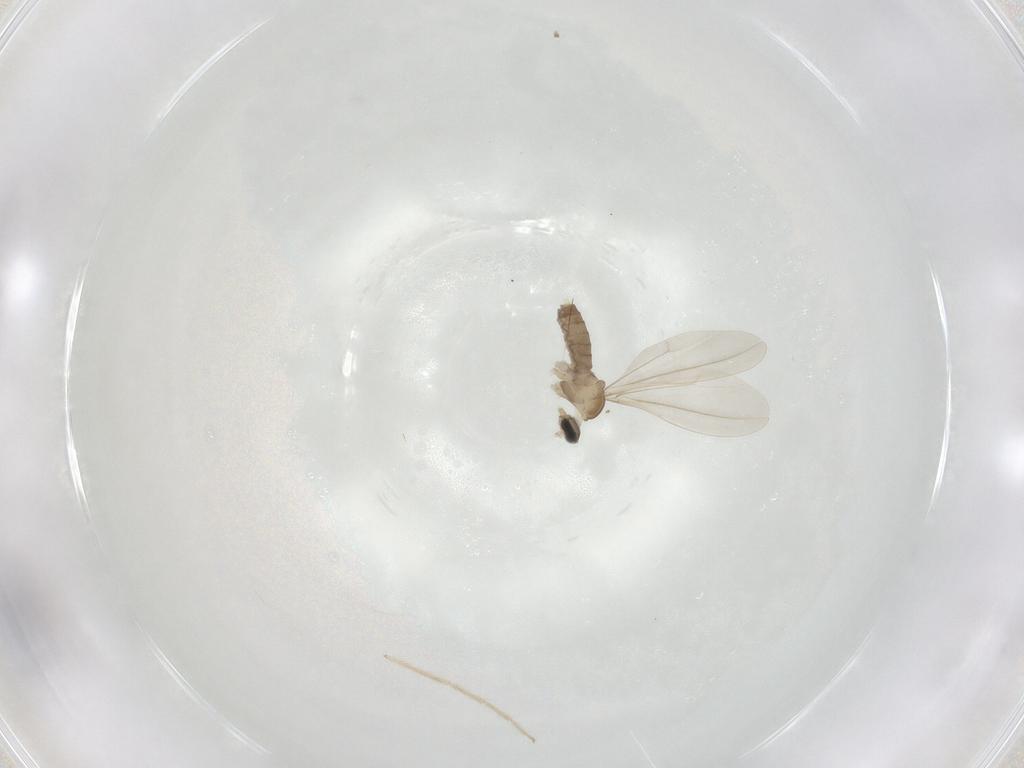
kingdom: Animalia
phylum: Arthropoda
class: Insecta
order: Diptera
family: Cecidomyiidae
